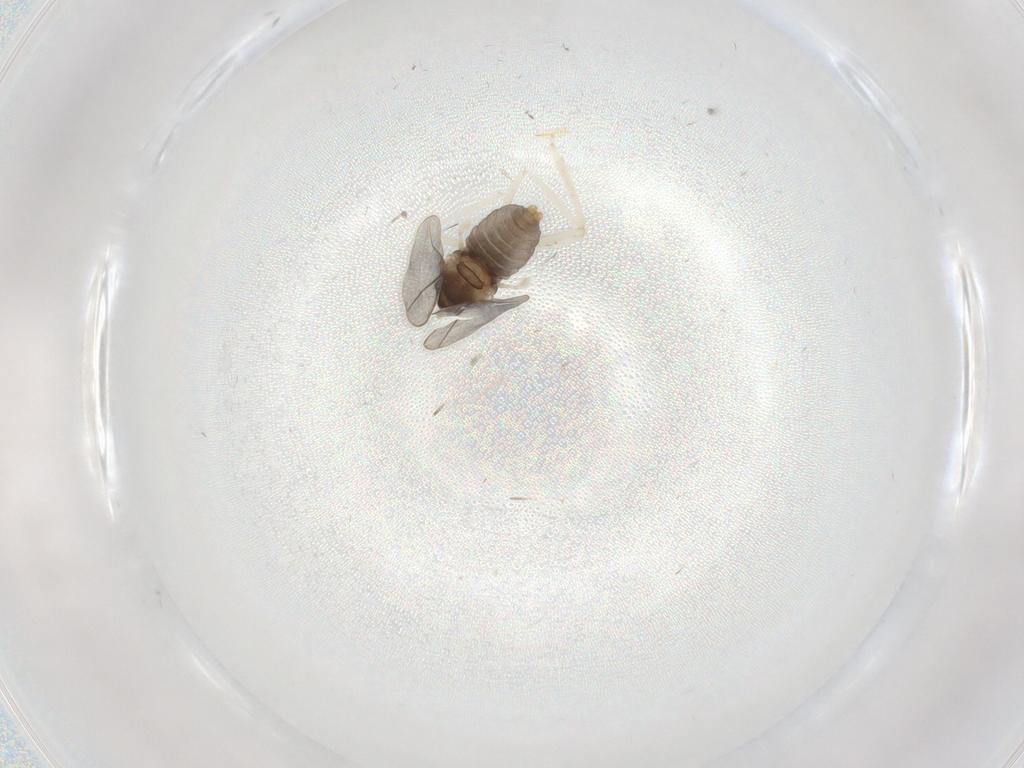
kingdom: Animalia
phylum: Arthropoda
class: Insecta
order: Diptera
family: Cecidomyiidae
